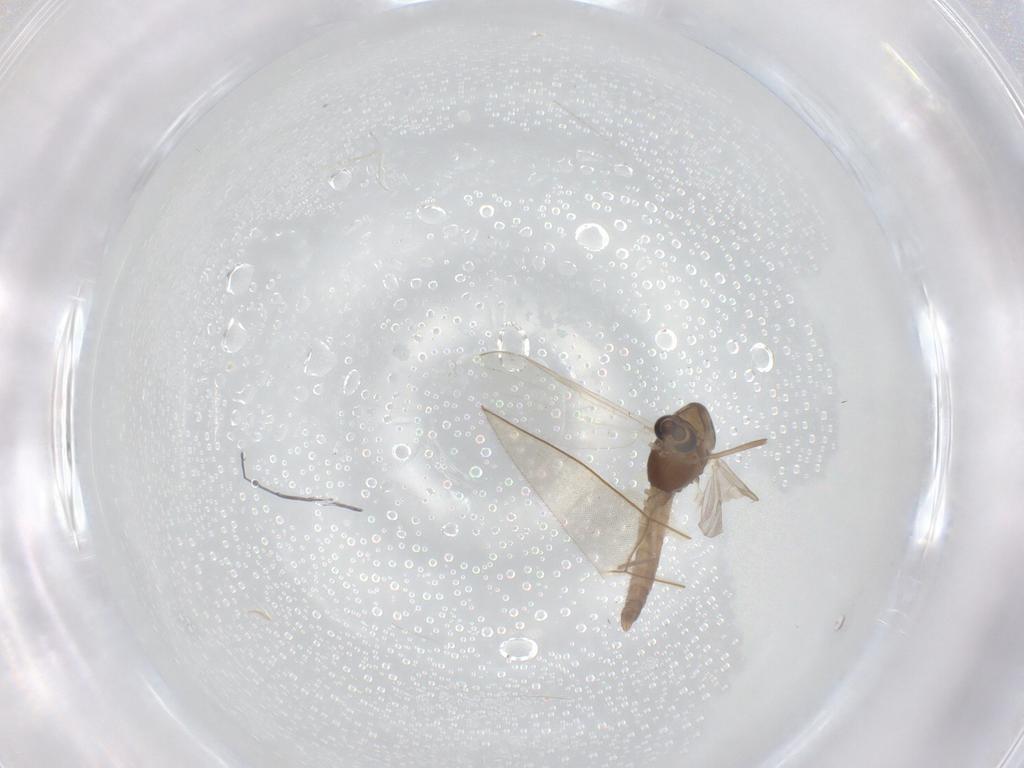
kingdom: Animalia
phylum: Arthropoda
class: Insecta
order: Diptera
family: Chironomidae
